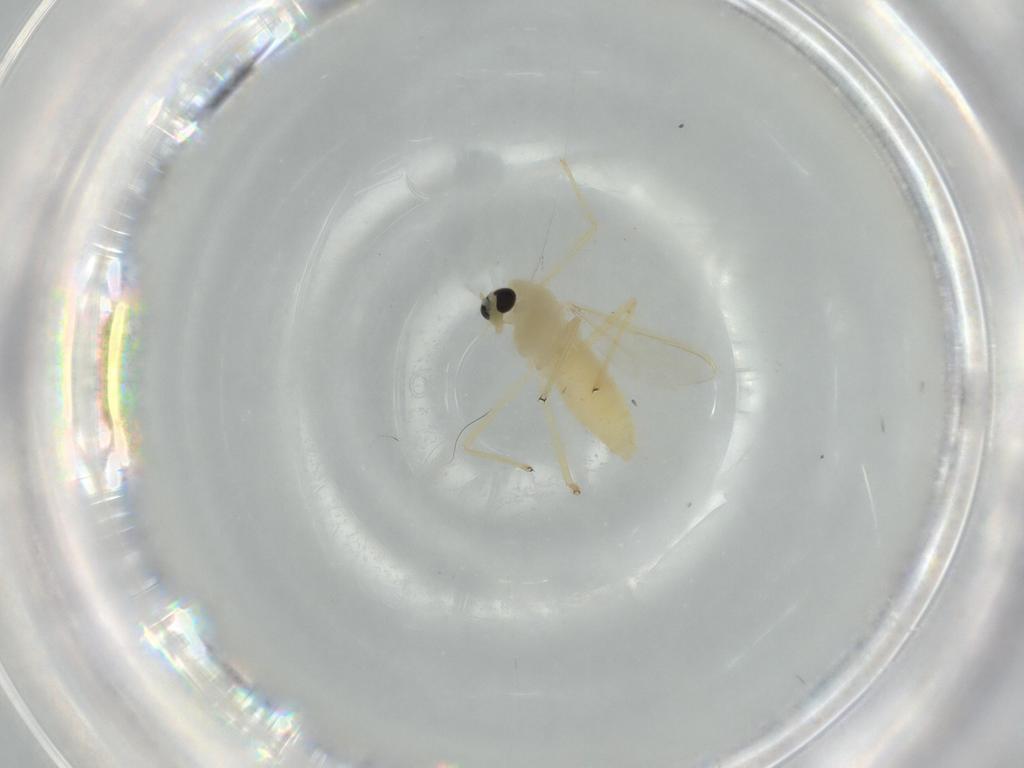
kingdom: Animalia
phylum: Arthropoda
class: Insecta
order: Diptera
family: Chironomidae
